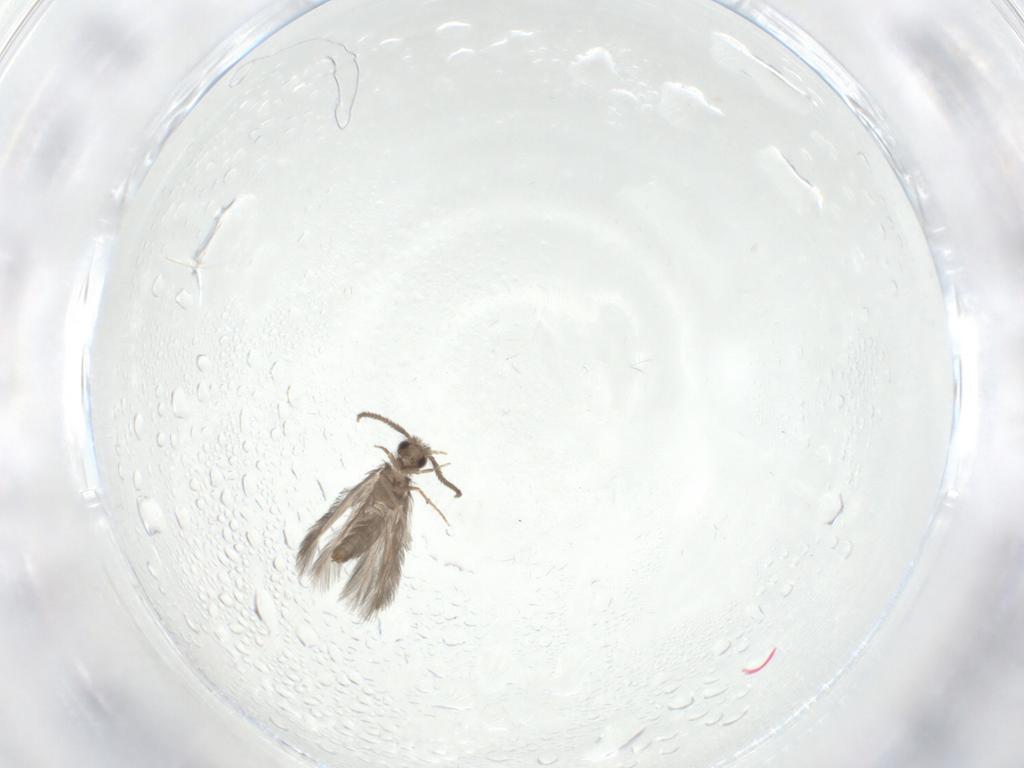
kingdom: Animalia
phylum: Arthropoda
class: Insecta
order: Trichoptera
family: Hydroptilidae
